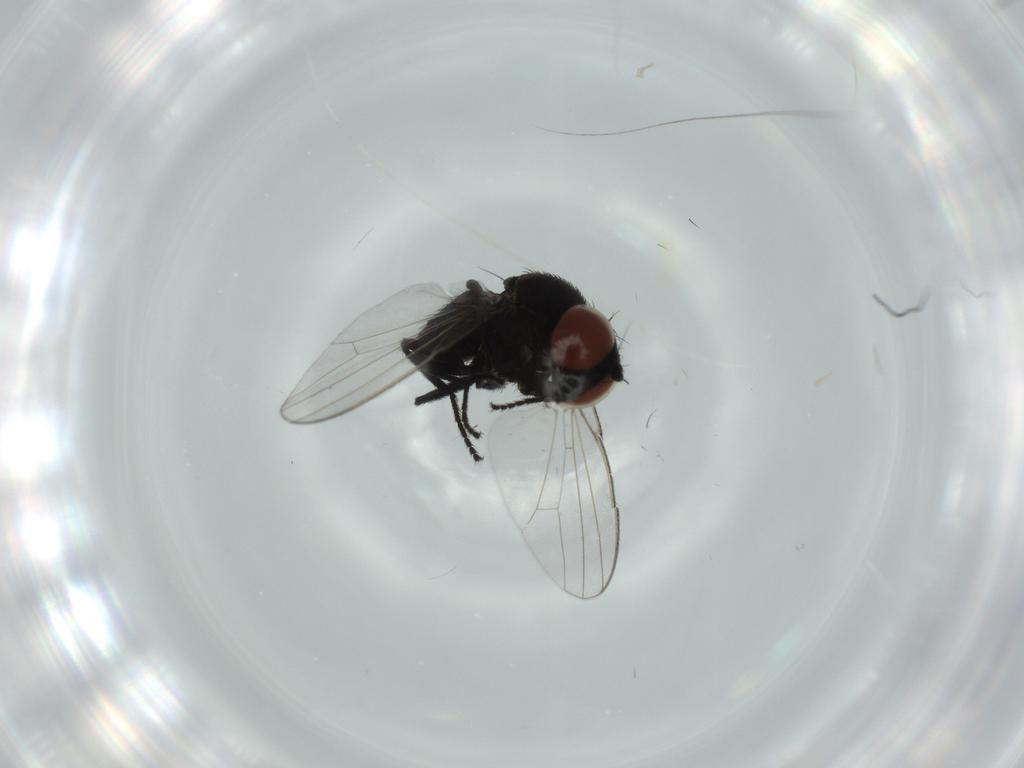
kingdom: Animalia
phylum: Arthropoda
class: Insecta
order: Diptera
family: Milichiidae
